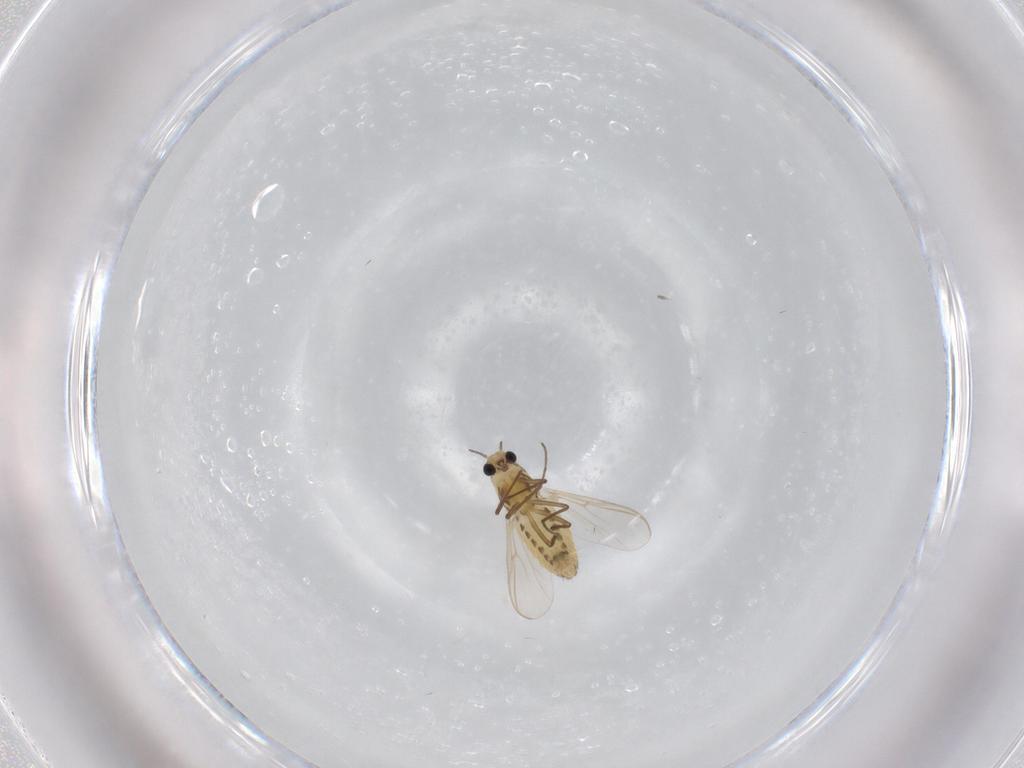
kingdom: Animalia
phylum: Arthropoda
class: Insecta
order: Diptera
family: Chironomidae
